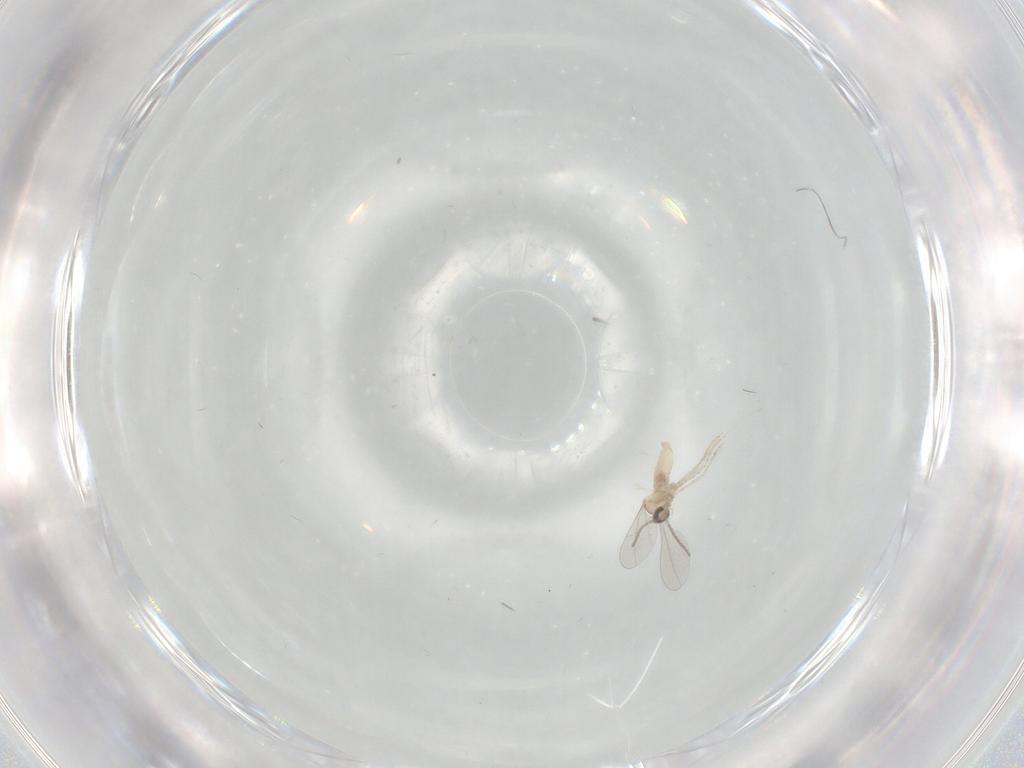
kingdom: Animalia
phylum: Arthropoda
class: Insecta
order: Diptera
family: Cecidomyiidae
